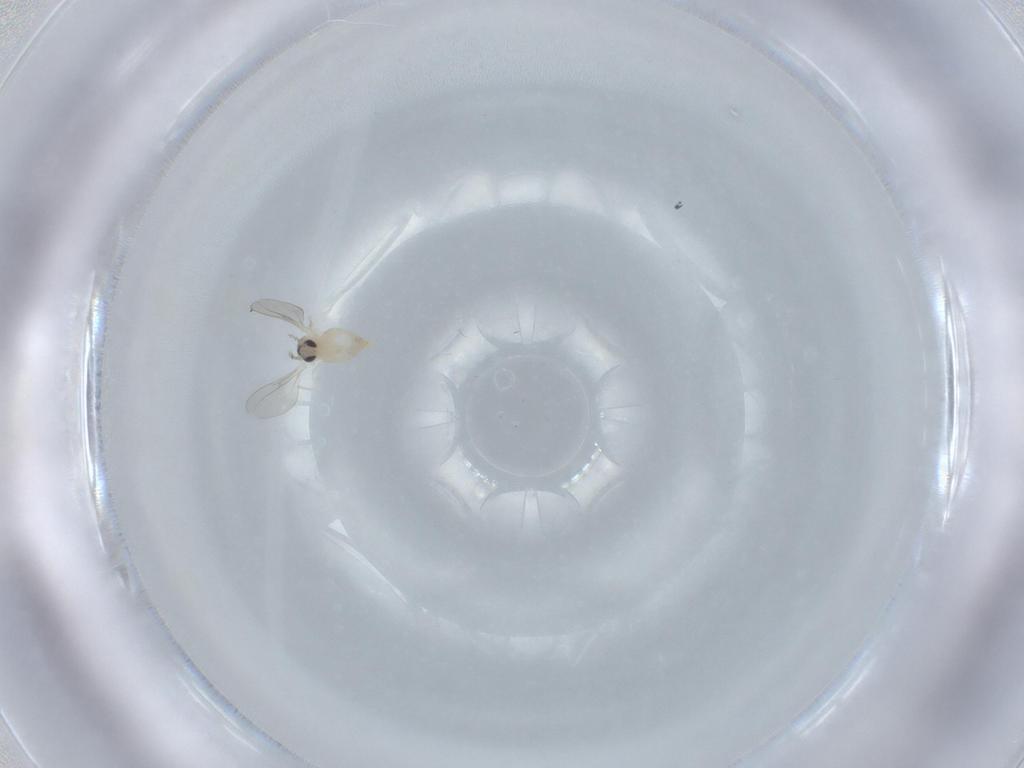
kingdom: Animalia
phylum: Arthropoda
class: Insecta
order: Diptera
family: Cecidomyiidae
